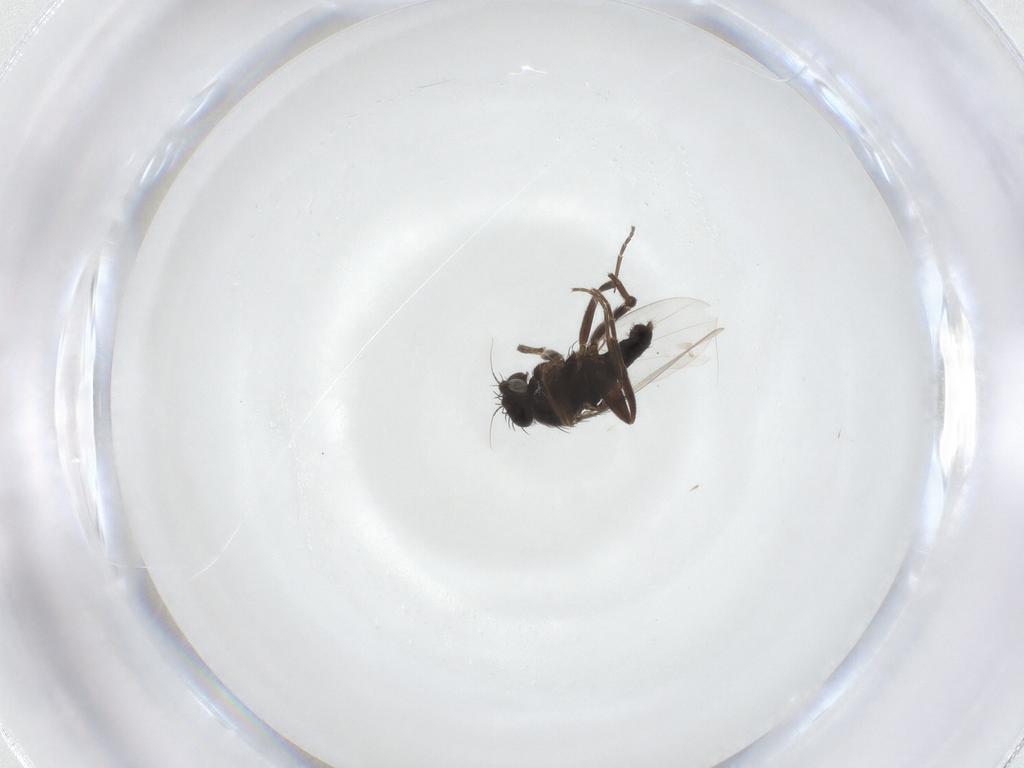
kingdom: Animalia
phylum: Arthropoda
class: Insecta
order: Diptera
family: Phoridae
